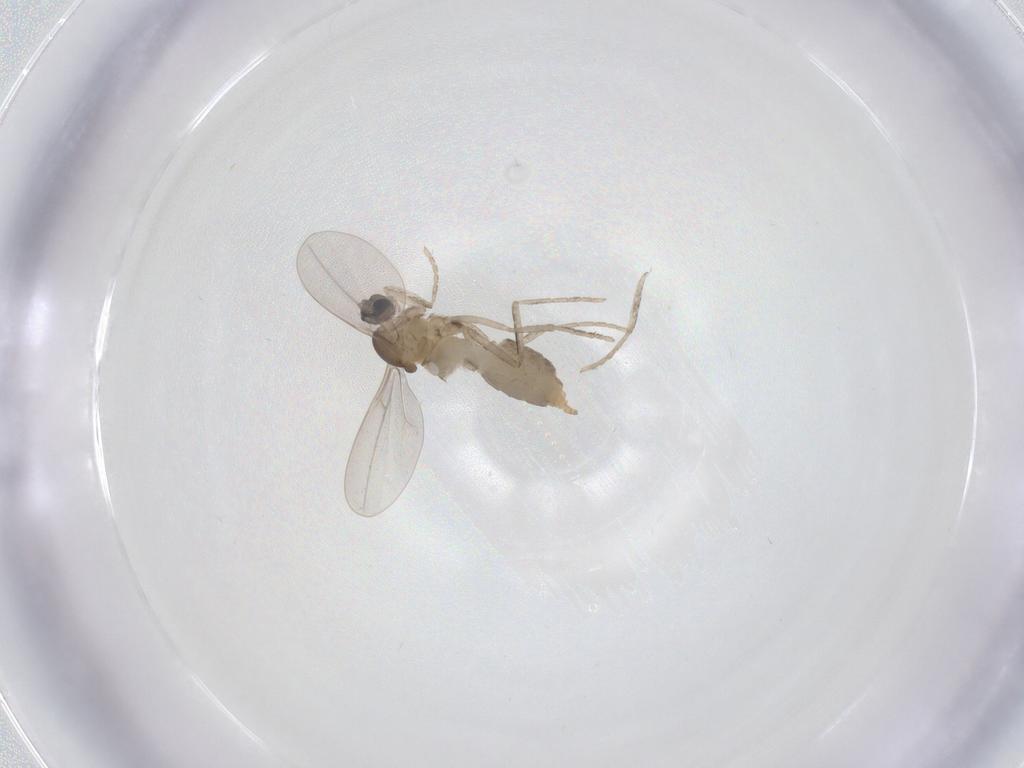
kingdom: Animalia
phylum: Arthropoda
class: Insecta
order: Diptera
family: Cecidomyiidae
